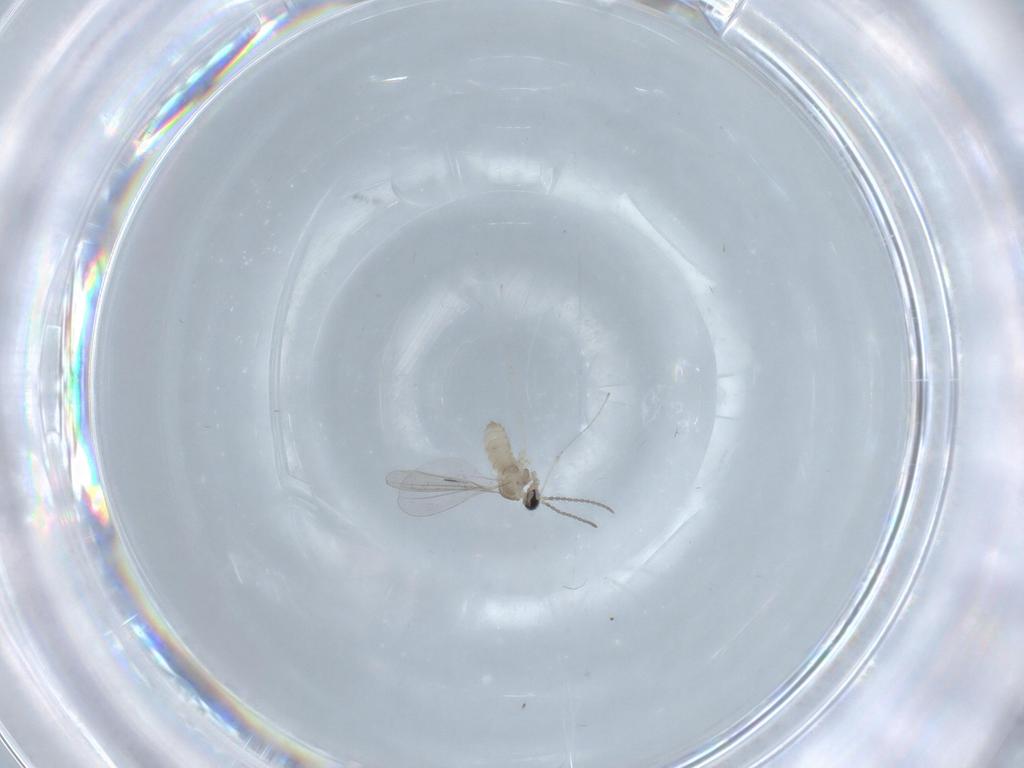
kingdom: Animalia
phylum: Arthropoda
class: Insecta
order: Diptera
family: Cecidomyiidae
